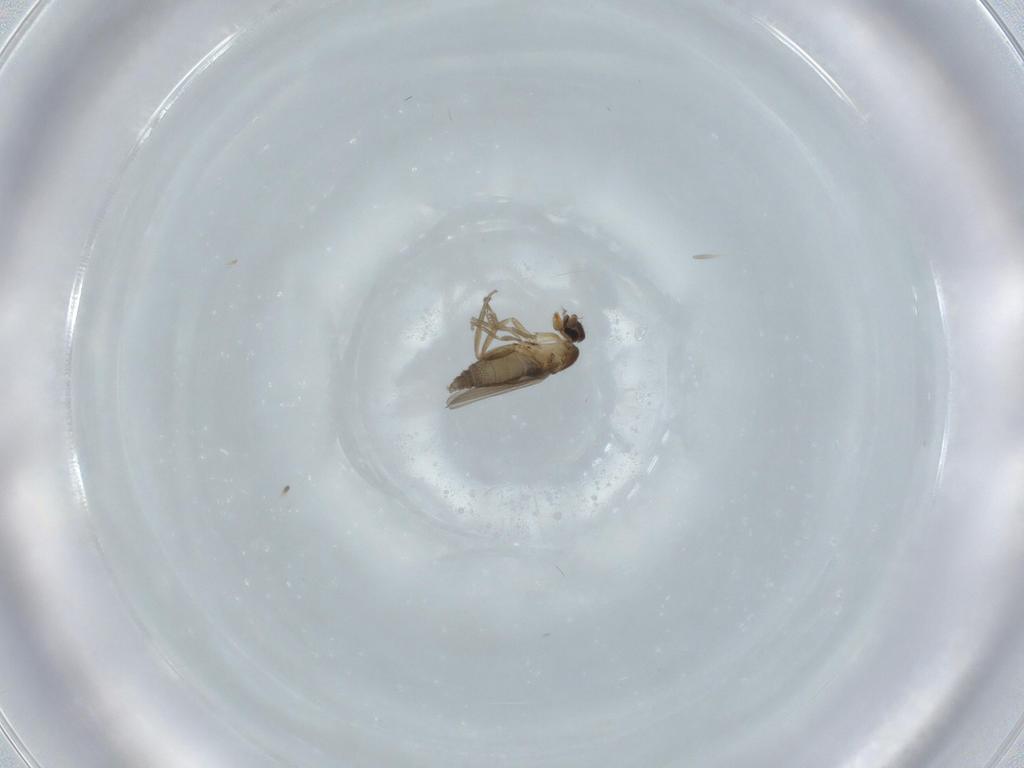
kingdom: Animalia
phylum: Arthropoda
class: Insecta
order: Diptera
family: Phoridae
